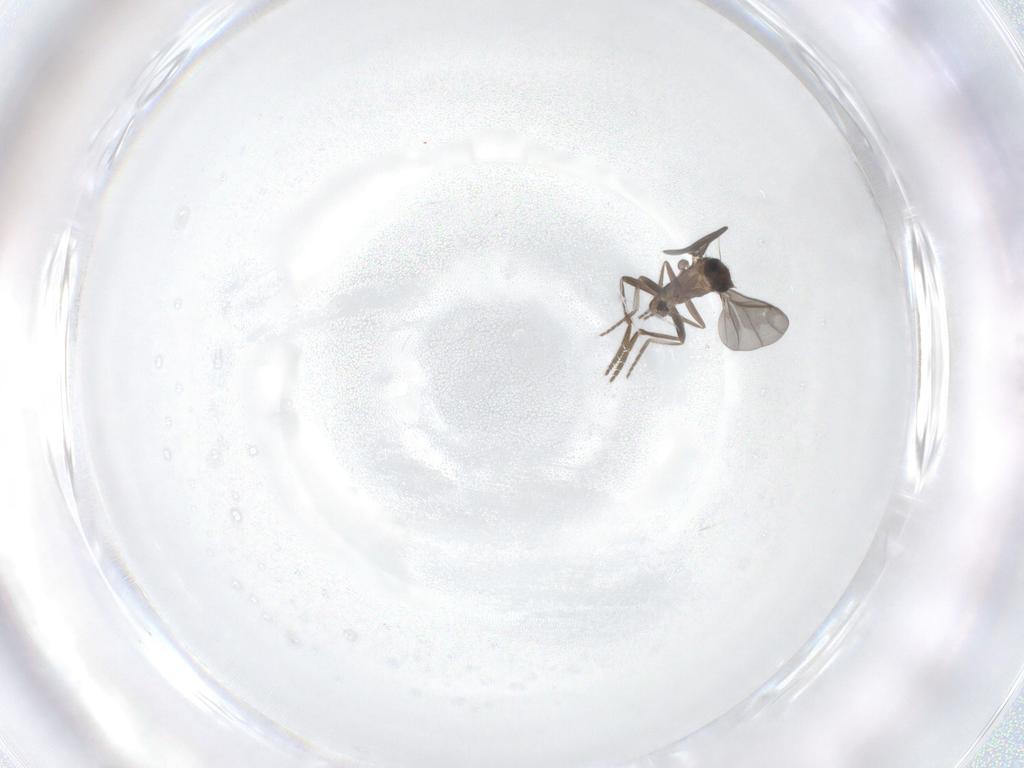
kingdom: Animalia
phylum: Arthropoda
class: Insecta
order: Diptera
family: Phoridae
